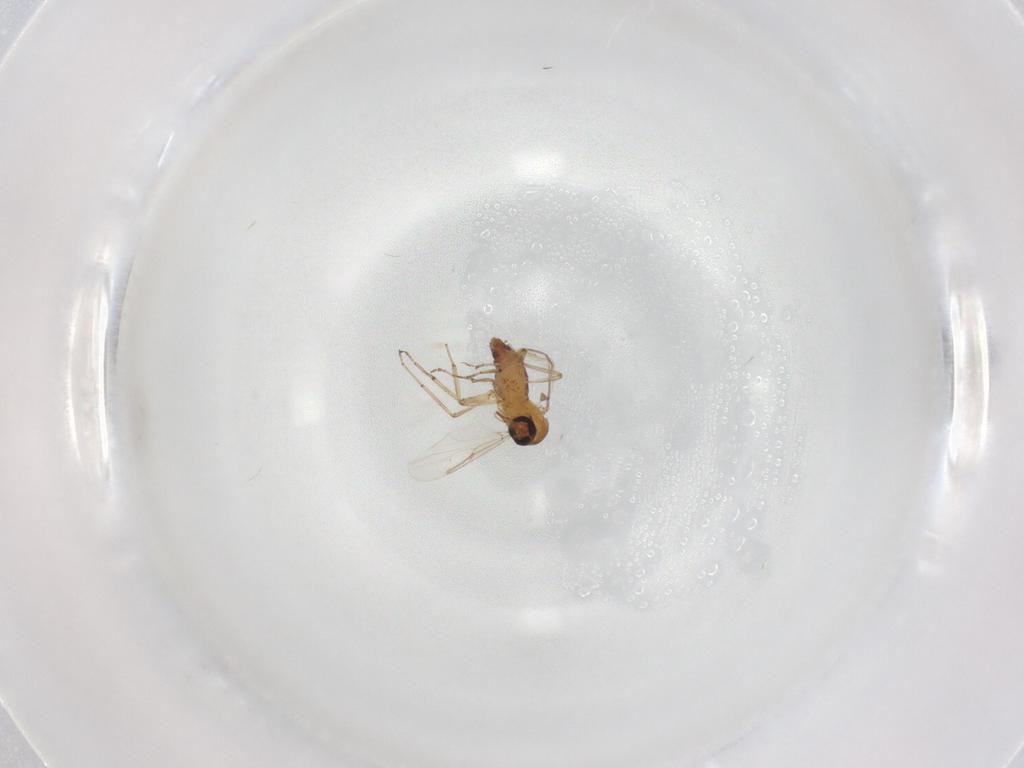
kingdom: Animalia
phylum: Arthropoda
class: Insecta
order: Diptera
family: Ceratopogonidae
